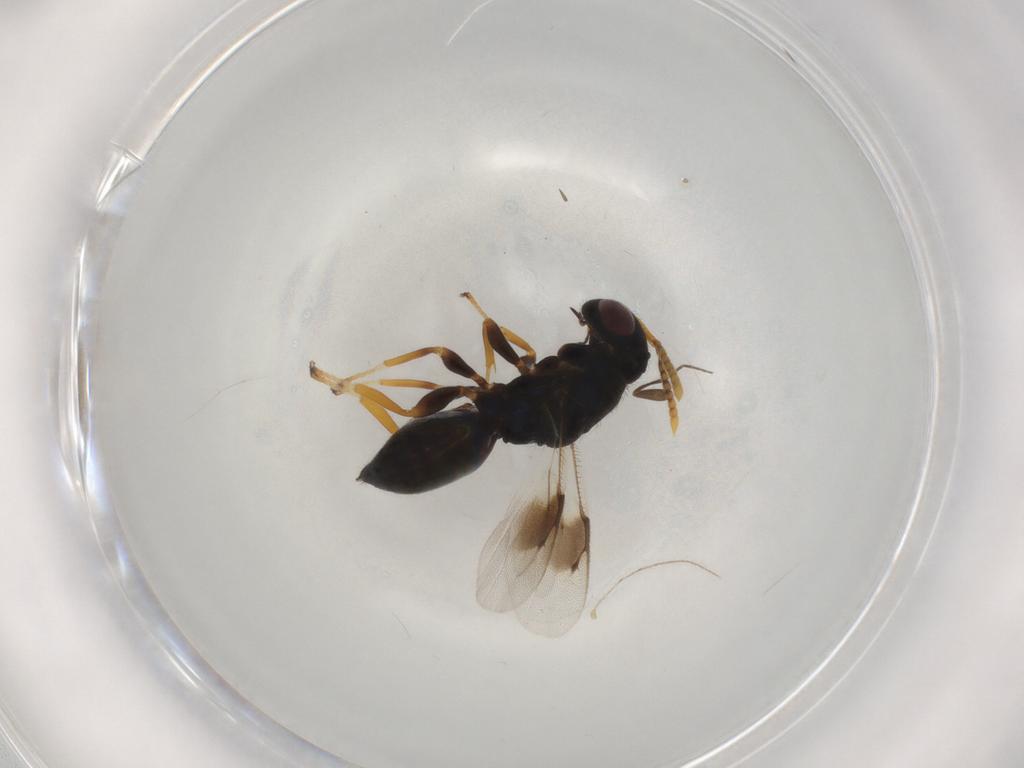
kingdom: Animalia
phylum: Arthropoda
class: Insecta
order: Hymenoptera
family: Pteromalidae
